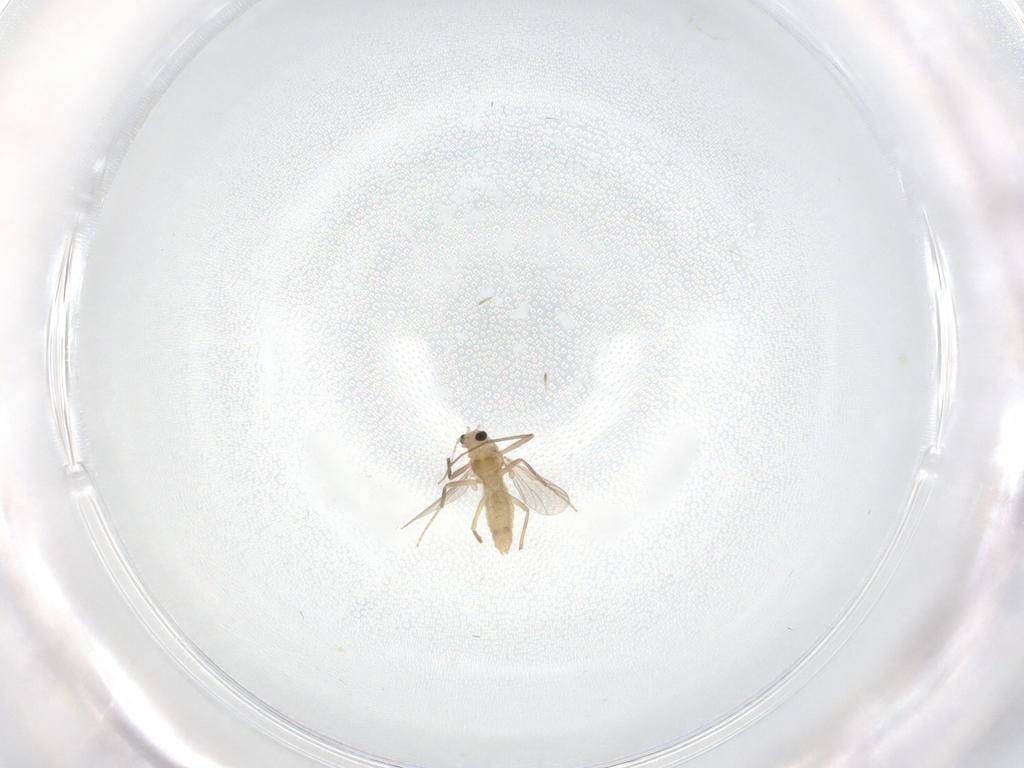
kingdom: Animalia
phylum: Arthropoda
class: Insecta
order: Diptera
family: Chironomidae
